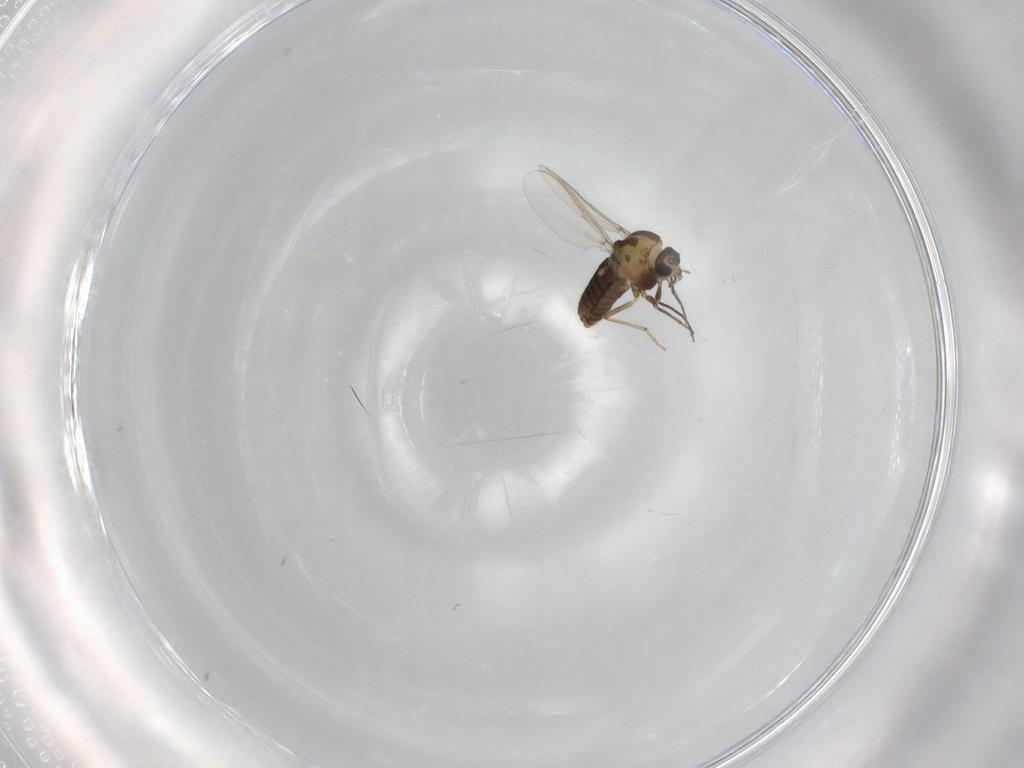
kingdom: Animalia
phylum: Arthropoda
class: Insecta
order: Diptera
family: Chironomidae
